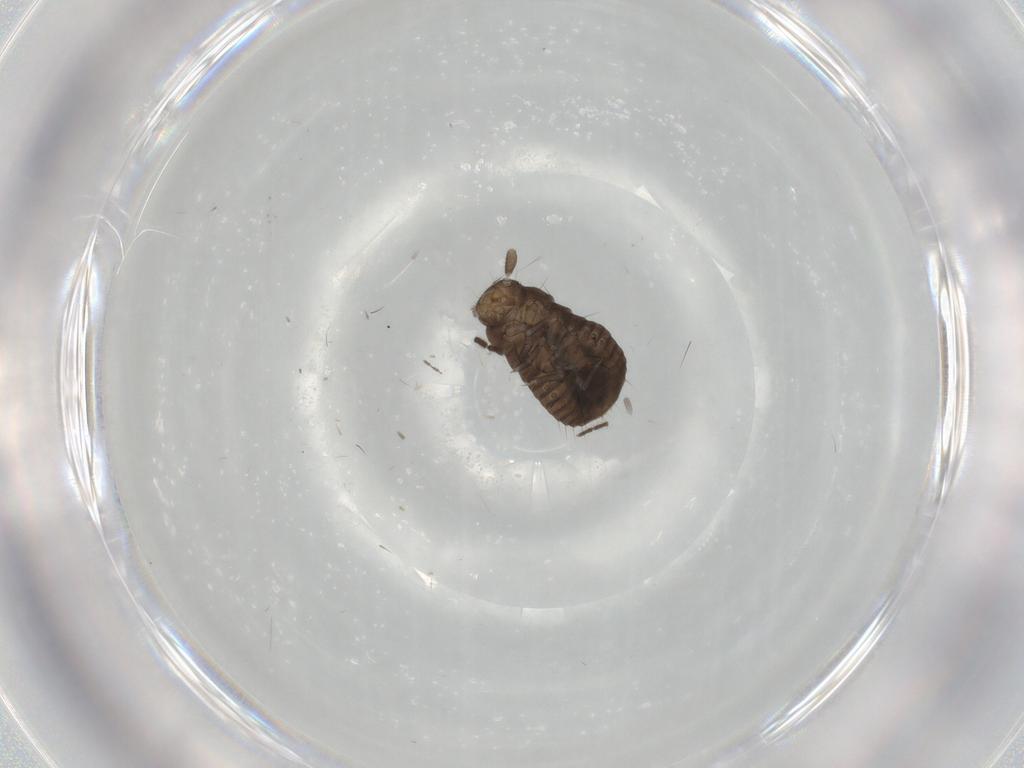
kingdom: Animalia
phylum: Arthropoda
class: Insecta
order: Coleoptera
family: Tenebrionidae
